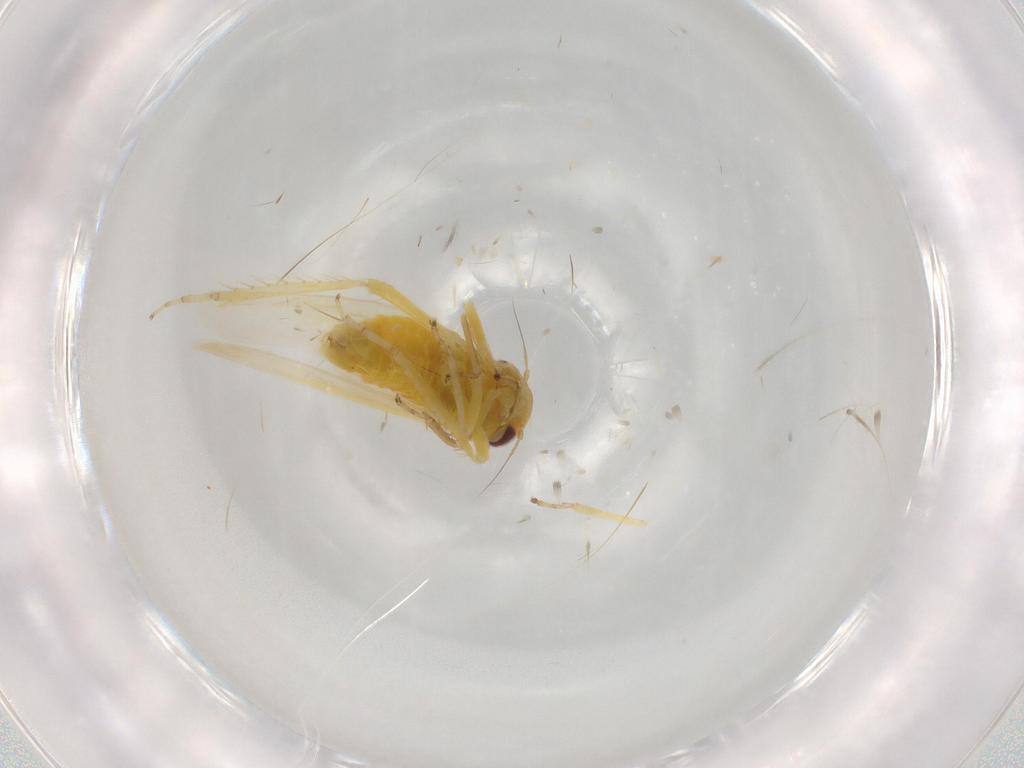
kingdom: Animalia
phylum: Arthropoda
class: Insecta
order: Hemiptera
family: Cicadellidae
